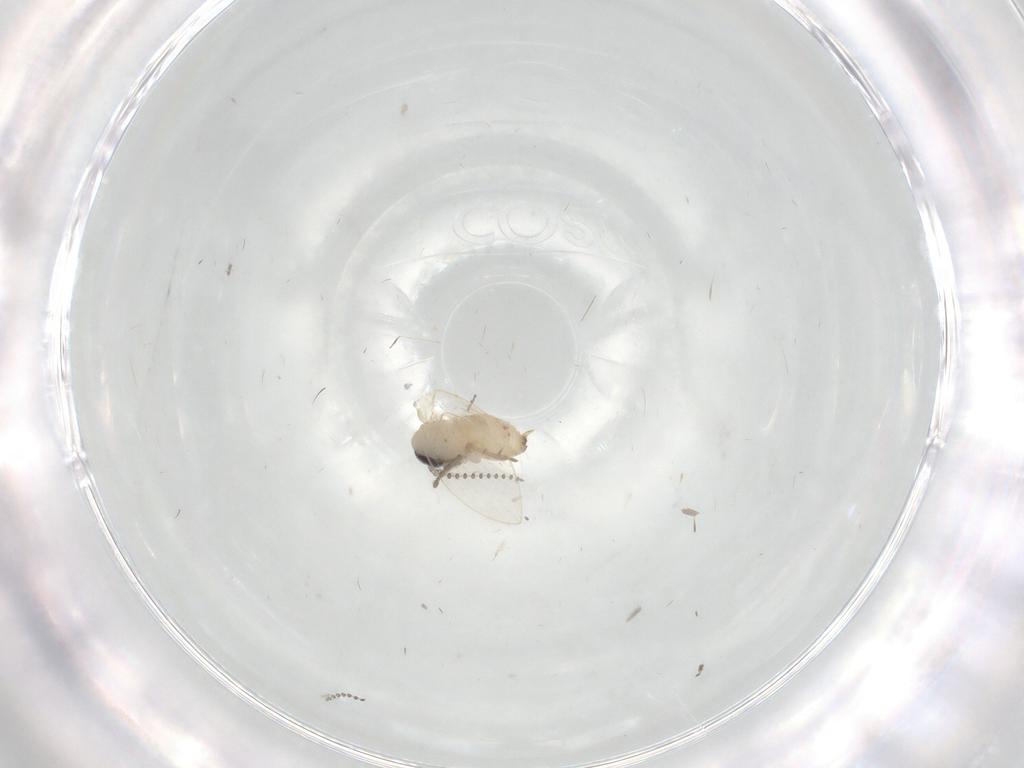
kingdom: Animalia
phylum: Arthropoda
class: Insecta
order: Diptera
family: Psychodidae
